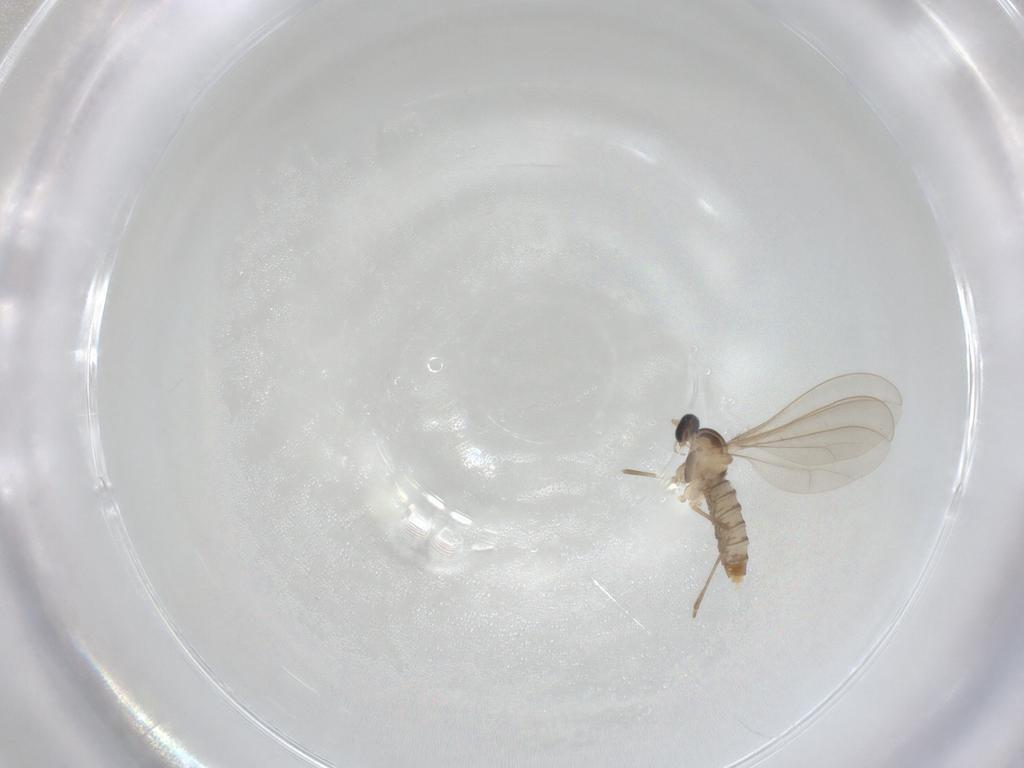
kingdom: Animalia
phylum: Arthropoda
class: Insecta
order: Diptera
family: Cecidomyiidae
